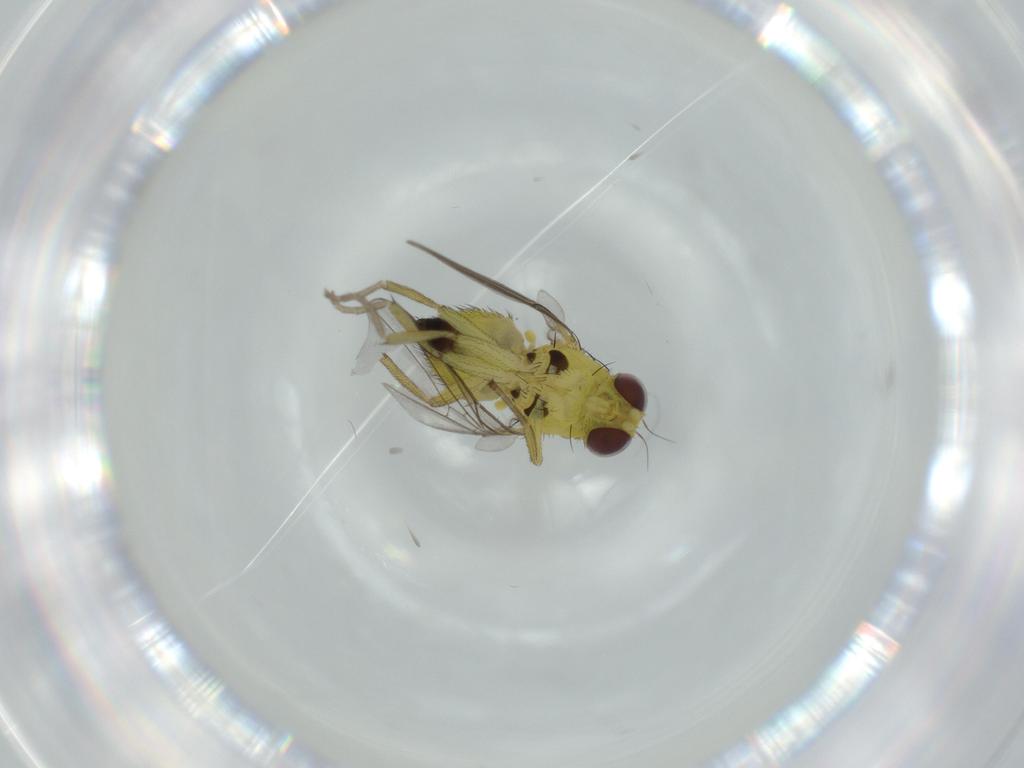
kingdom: Animalia
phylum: Arthropoda
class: Insecta
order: Diptera
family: Agromyzidae
